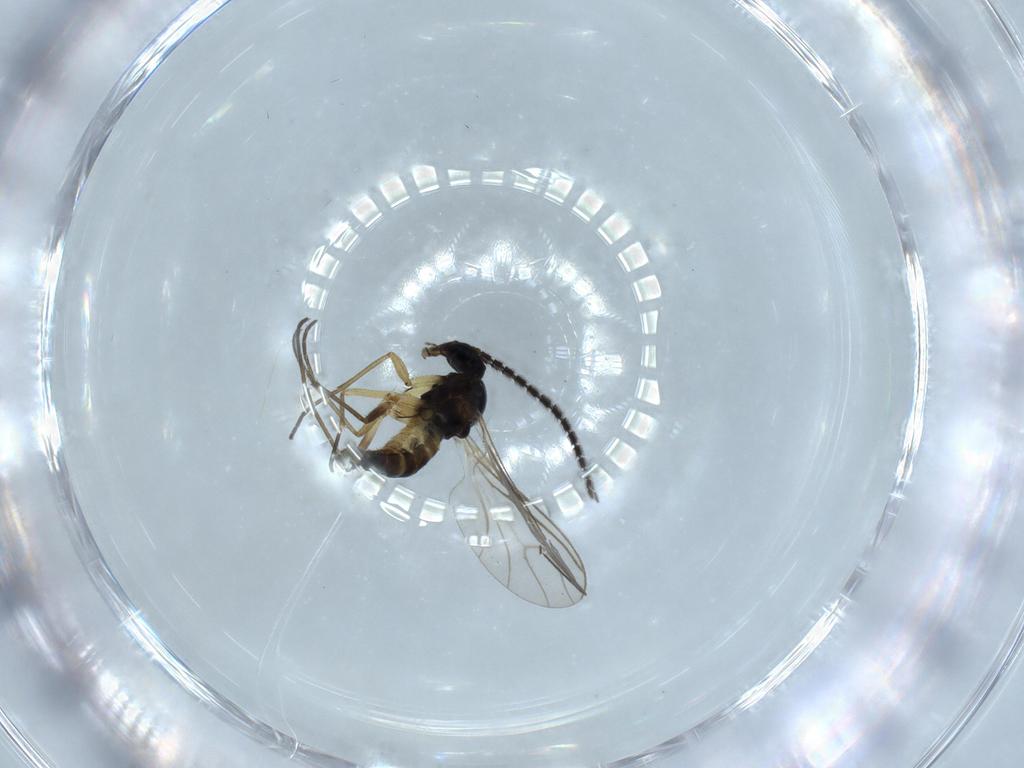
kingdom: Animalia
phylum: Arthropoda
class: Insecta
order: Diptera
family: Sciaridae
